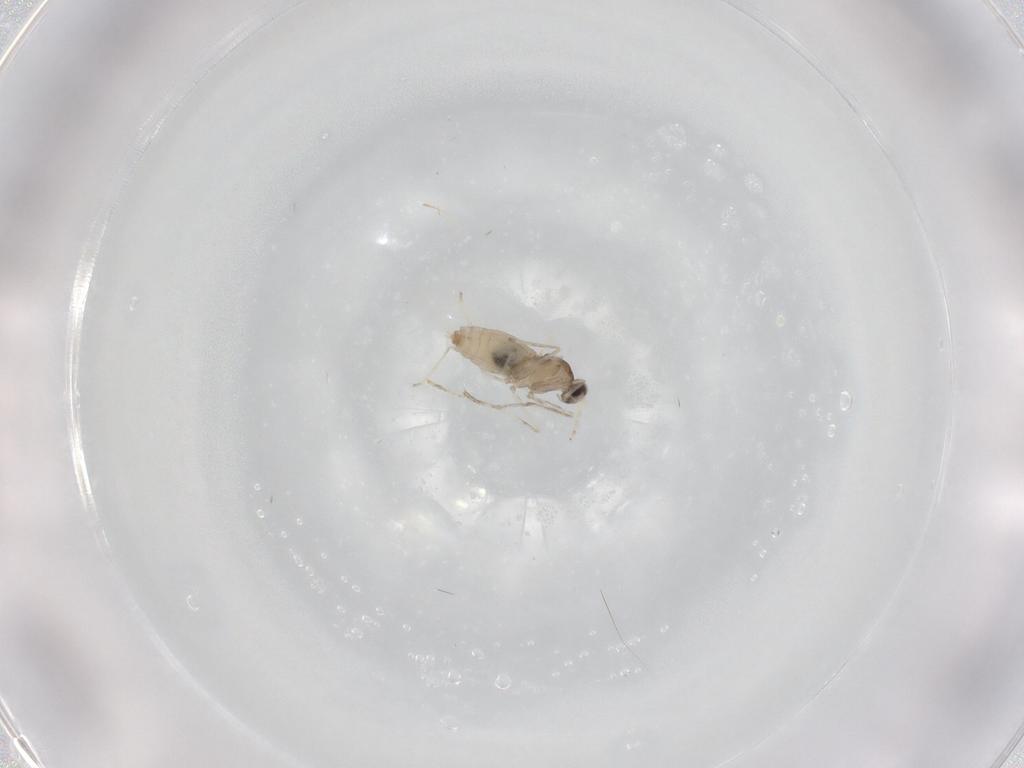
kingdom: Animalia
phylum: Arthropoda
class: Insecta
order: Diptera
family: Cecidomyiidae
